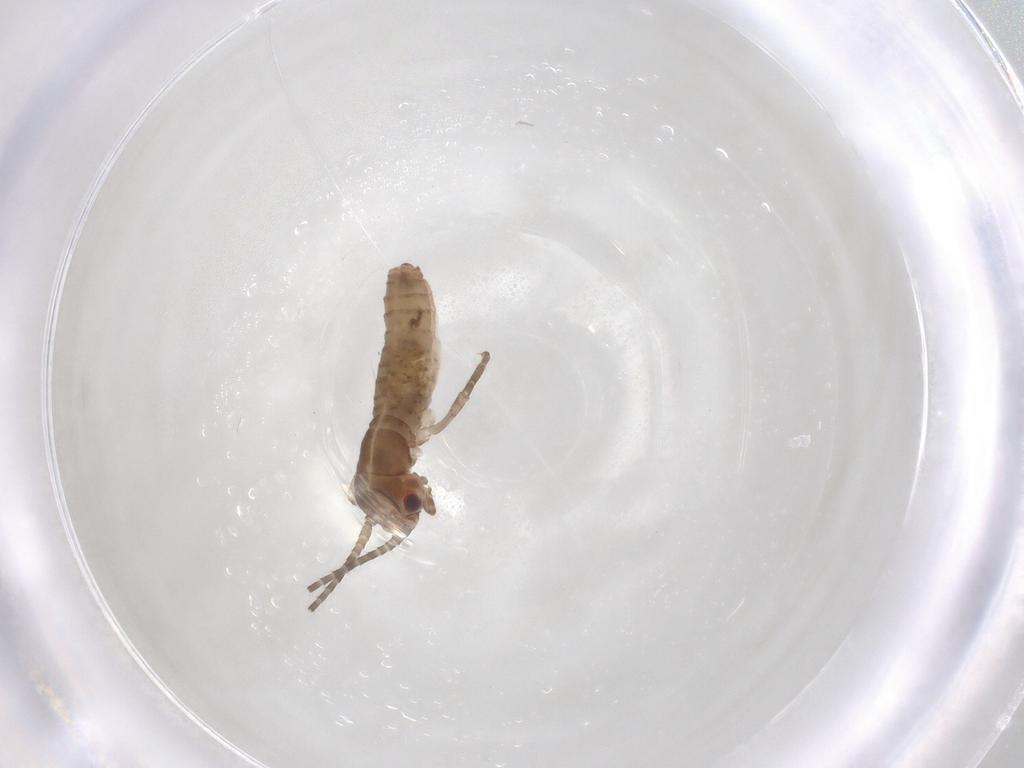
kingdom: Animalia
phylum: Arthropoda
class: Insecta
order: Orthoptera
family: Mogoplistidae
